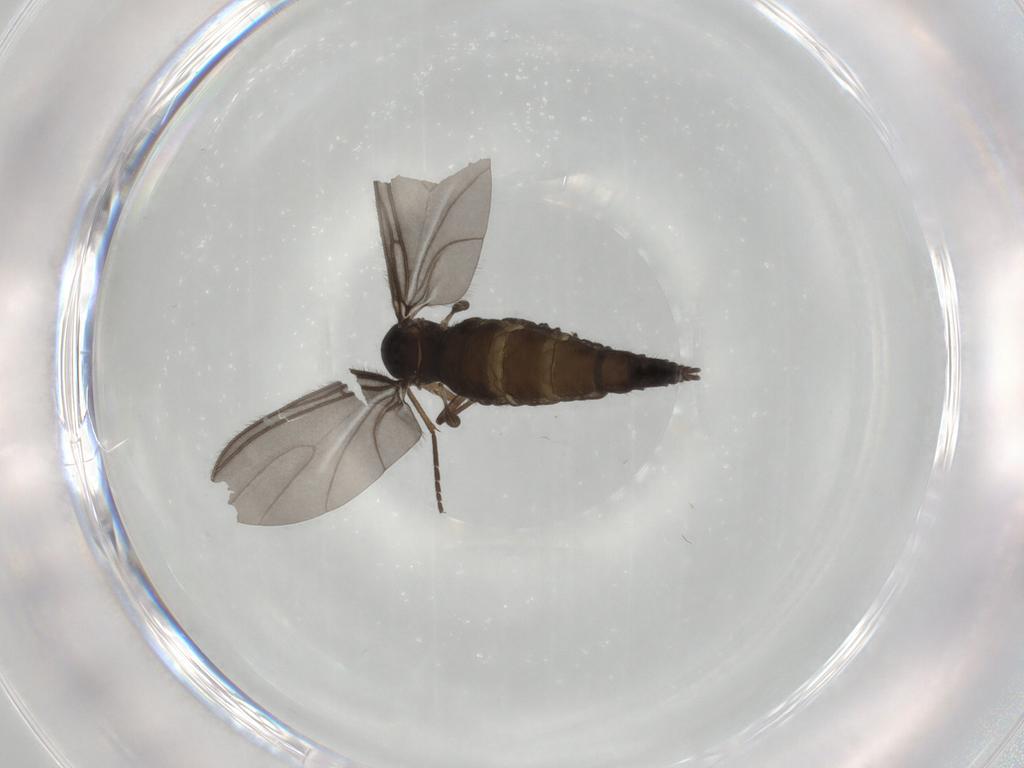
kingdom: Animalia
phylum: Arthropoda
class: Insecta
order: Diptera
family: Sciaridae
